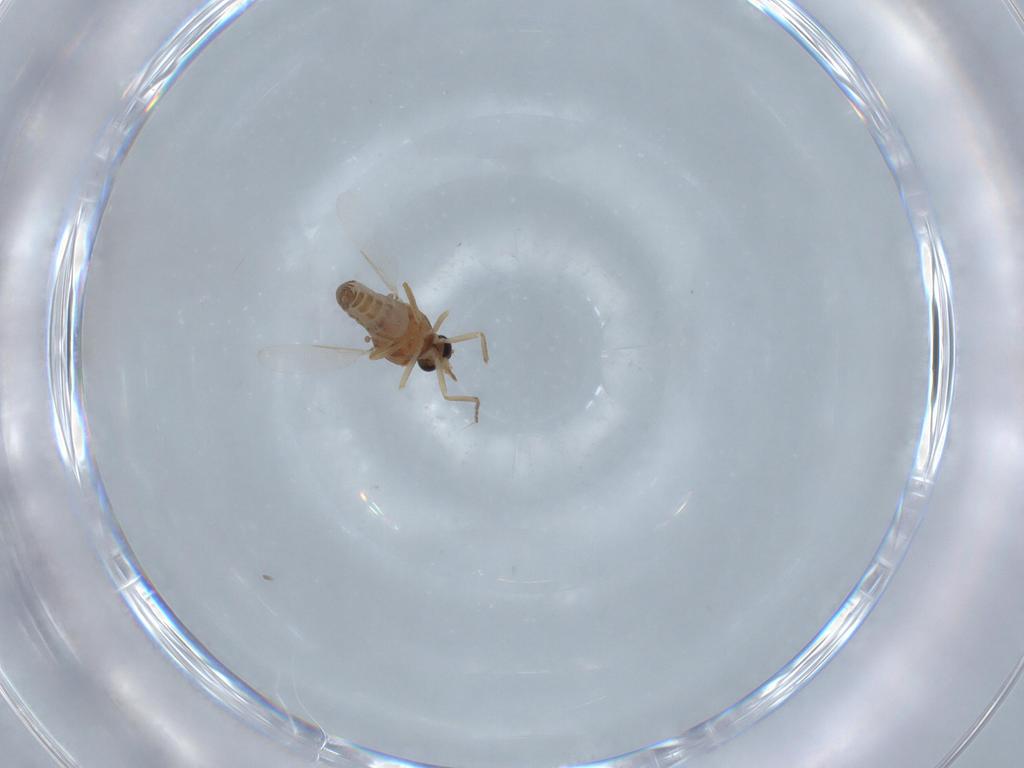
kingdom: Animalia
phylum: Arthropoda
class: Insecta
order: Diptera
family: Ceratopogonidae
